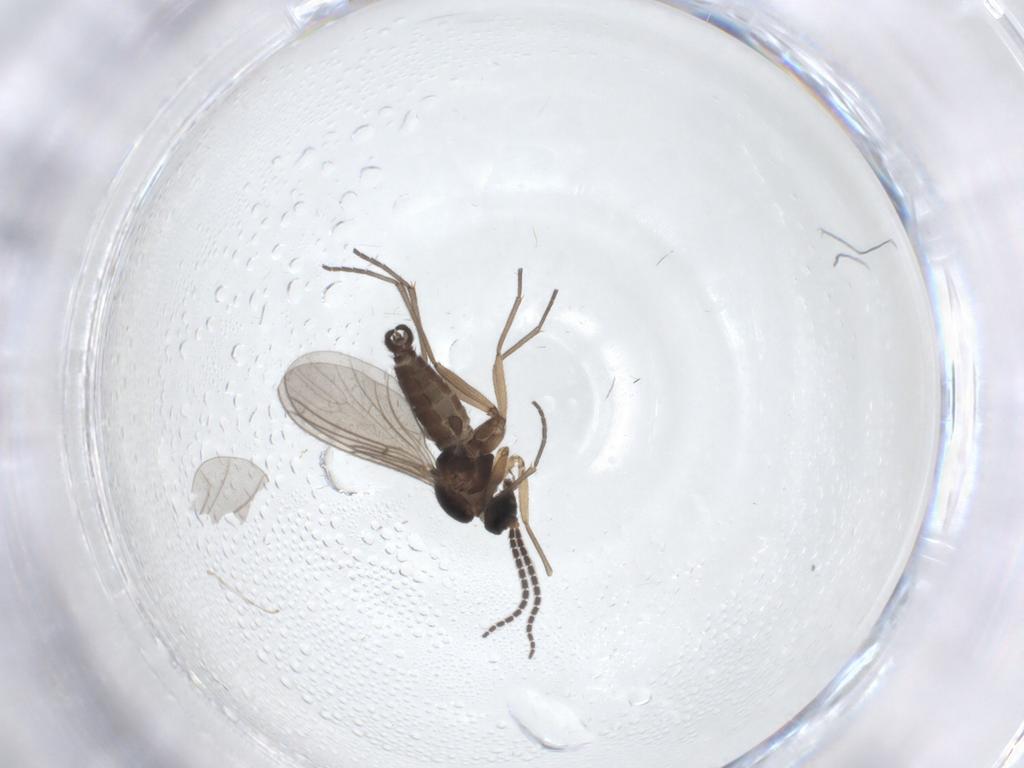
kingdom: Animalia
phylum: Arthropoda
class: Insecta
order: Diptera
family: Sciaridae
